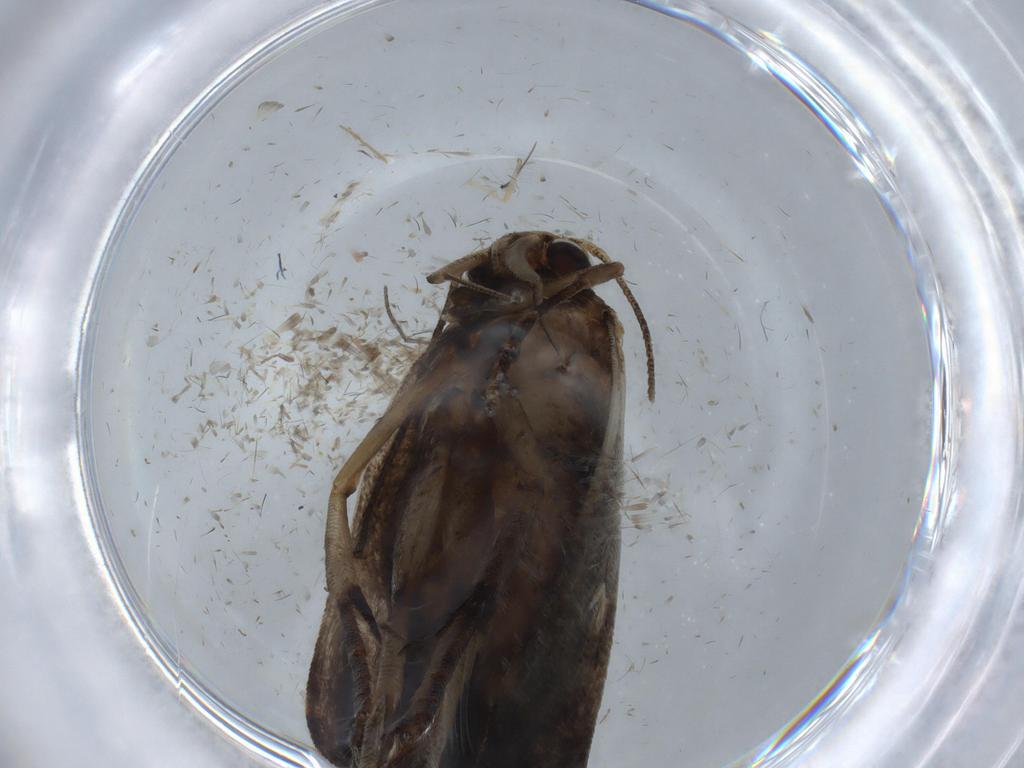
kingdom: Animalia
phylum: Arthropoda
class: Insecta
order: Lepidoptera
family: Gelechiidae
